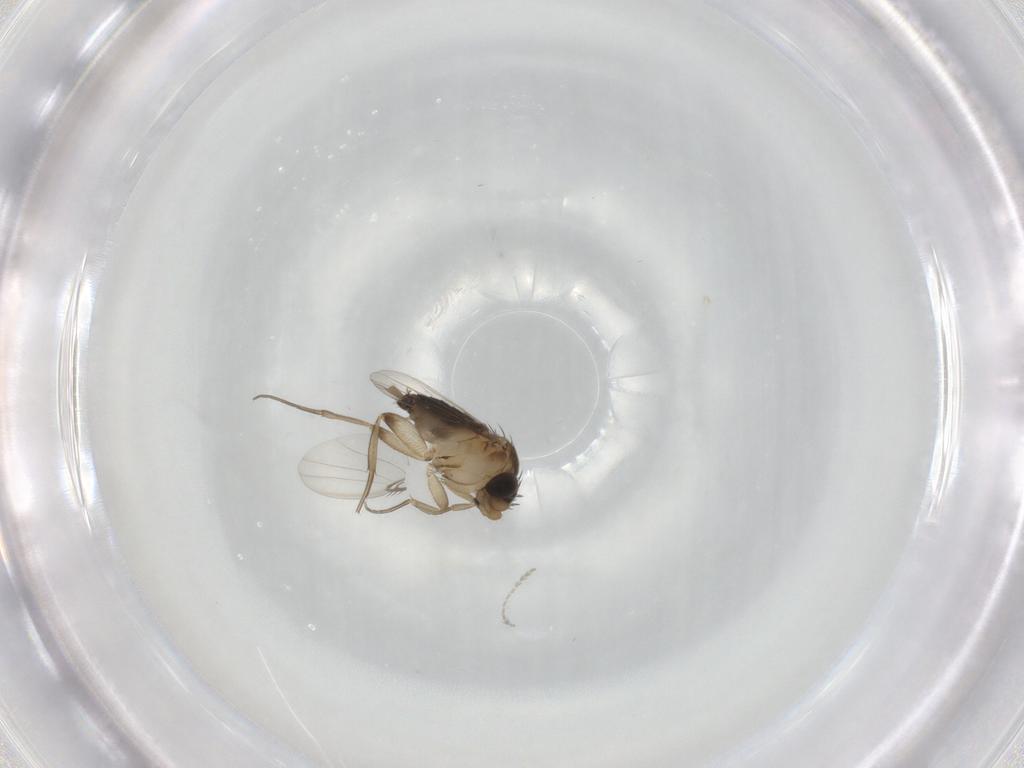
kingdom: Animalia
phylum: Arthropoda
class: Insecta
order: Diptera
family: Phoridae
